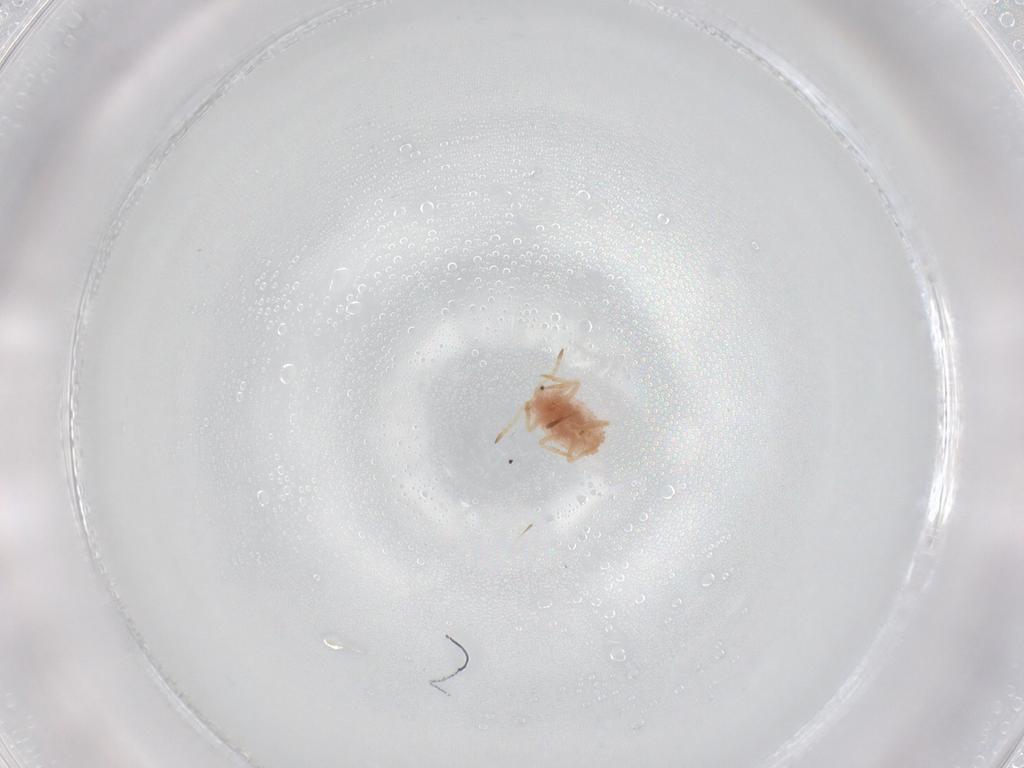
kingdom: Animalia
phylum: Arthropoda
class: Insecta
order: Hemiptera
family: Coccoidea_incertae_sedis
